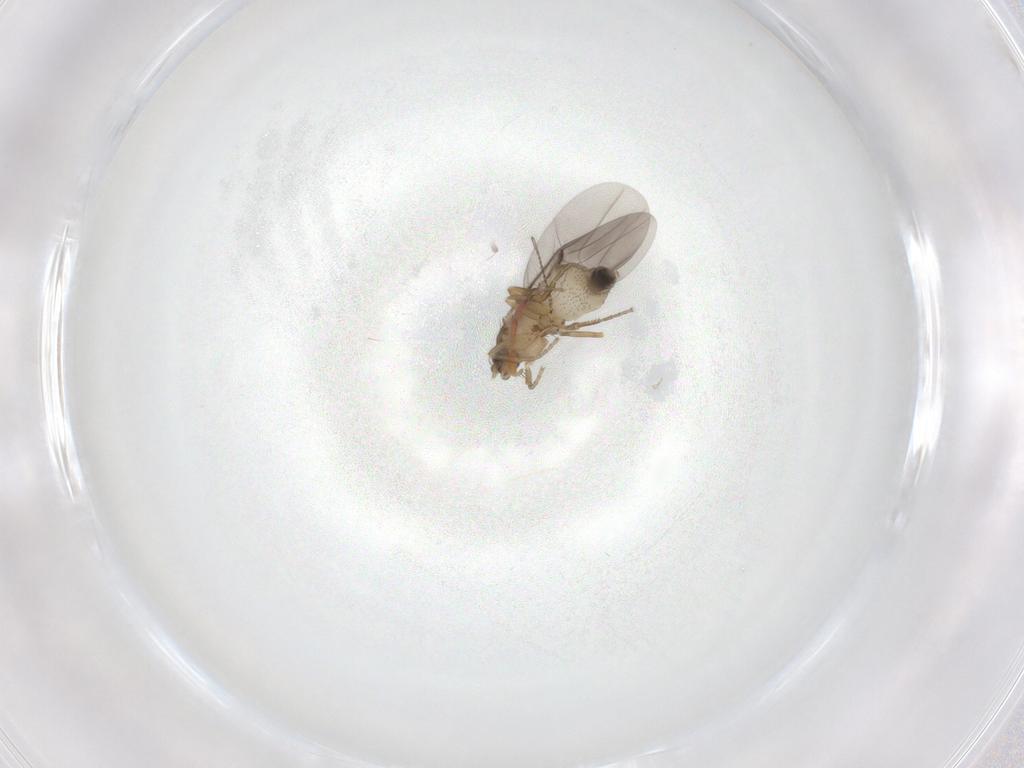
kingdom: Animalia
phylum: Arthropoda
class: Insecta
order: Diptera
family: Phoridae
